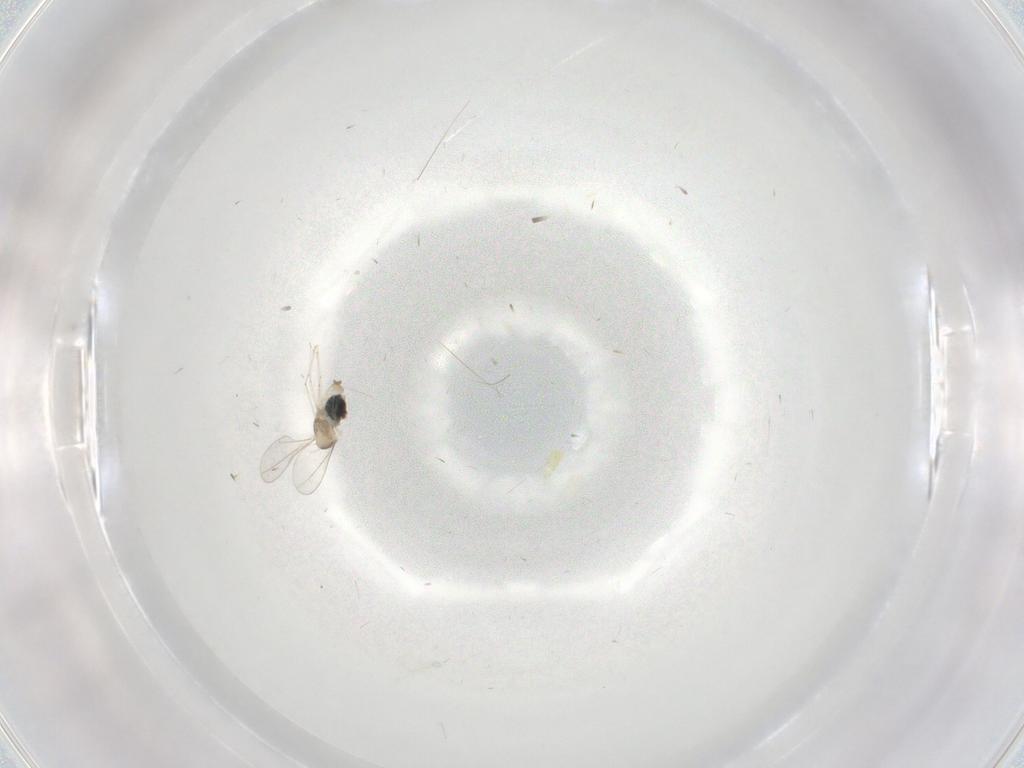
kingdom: Animalia
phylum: Arthropoda
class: Insecta
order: Diptera
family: Cecidomyiidae
